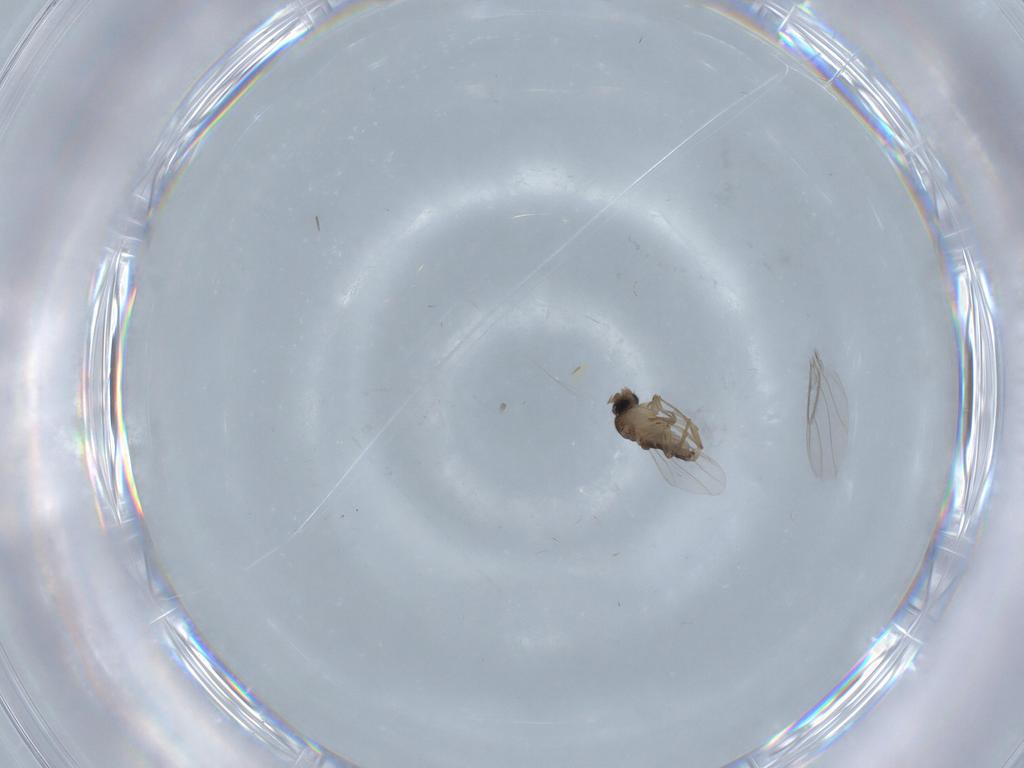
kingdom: Animalia
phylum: Arthropoda
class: Insecta
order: Diptera
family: Phoridae
